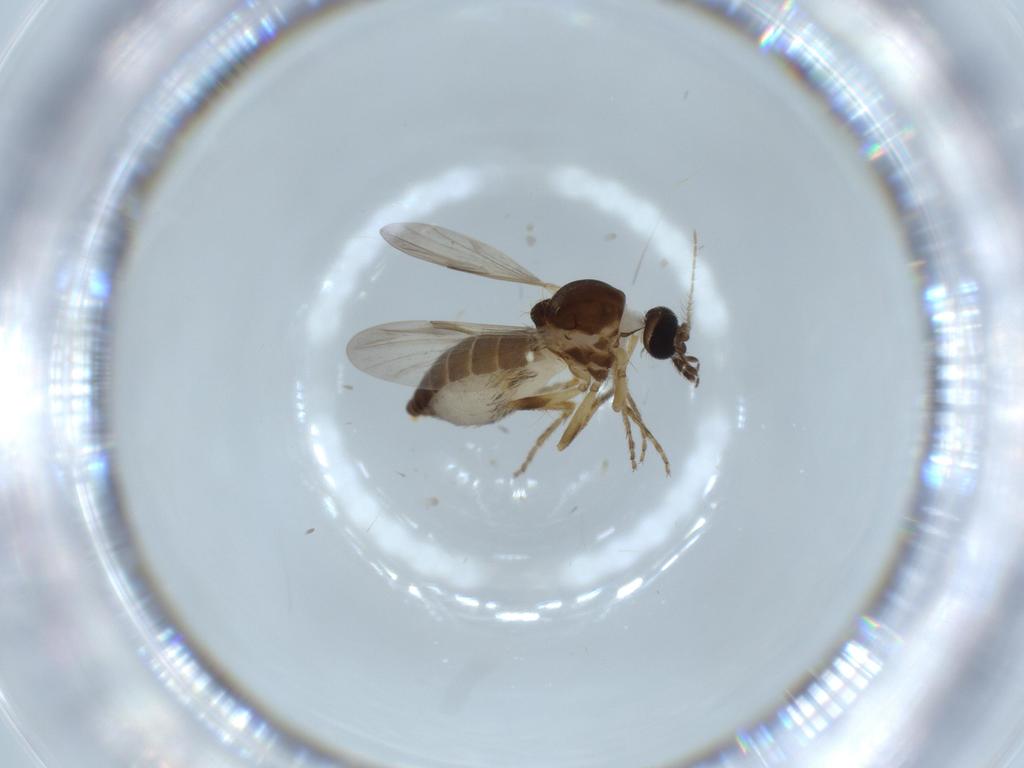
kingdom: Animalia
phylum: Arthropoda
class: Insecta
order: Diptera
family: Ceratopogonidae
